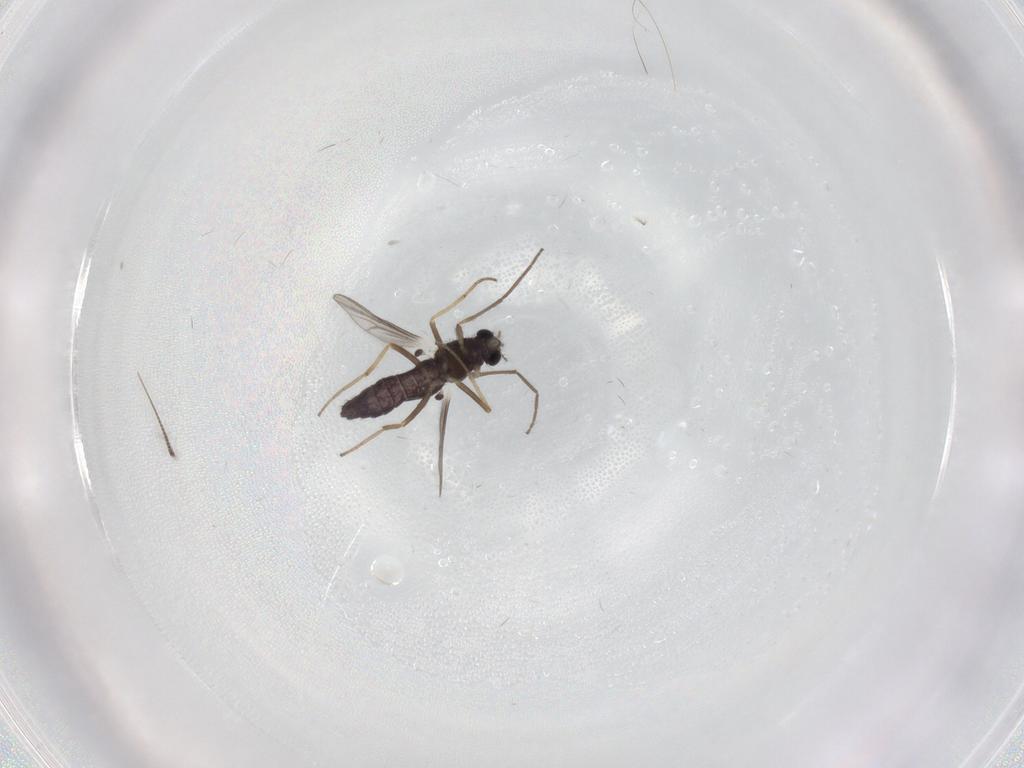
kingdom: Animalia
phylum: Arthropoda
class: Insecta
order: Diptera
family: Chironomidae
